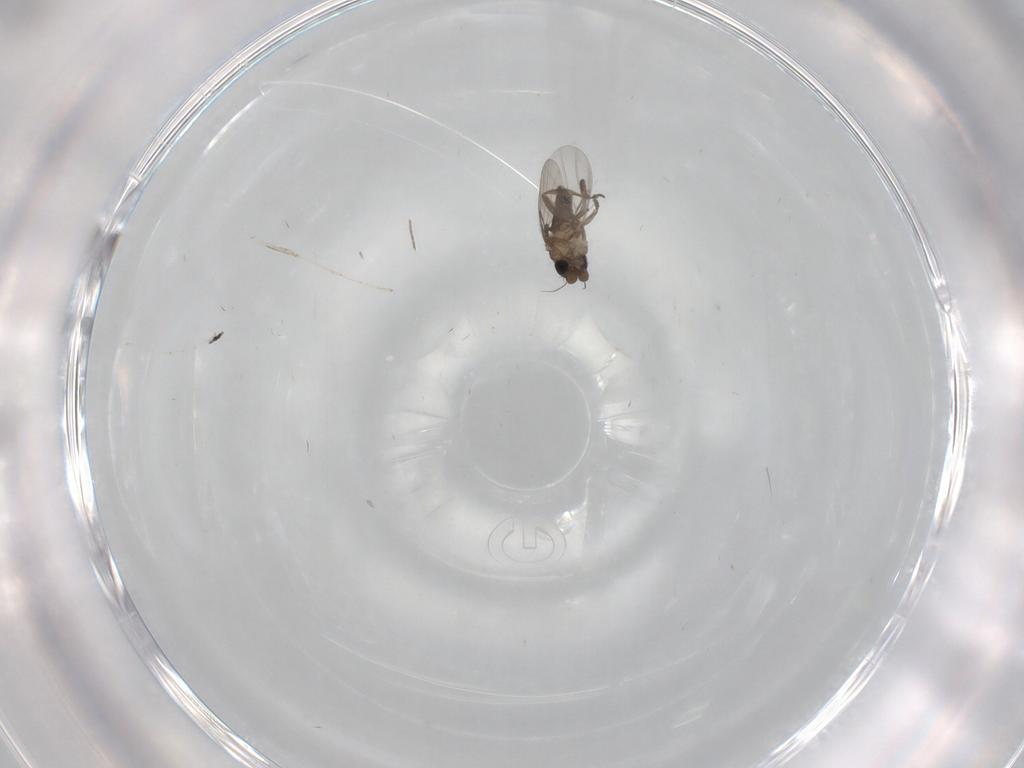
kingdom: Animalia
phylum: Arthropoda
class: Insecta
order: Diptera
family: Cecidomyiidae
